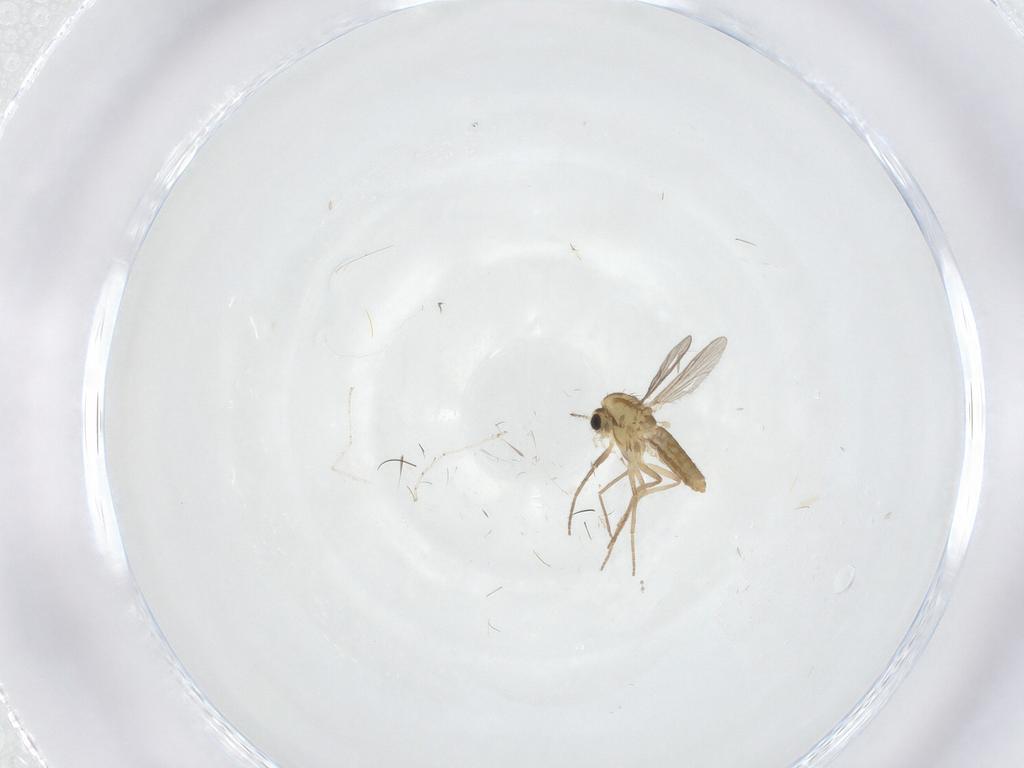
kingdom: Animalia
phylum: Arthropoda
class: Insecta
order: Diptera
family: Chironomidae
